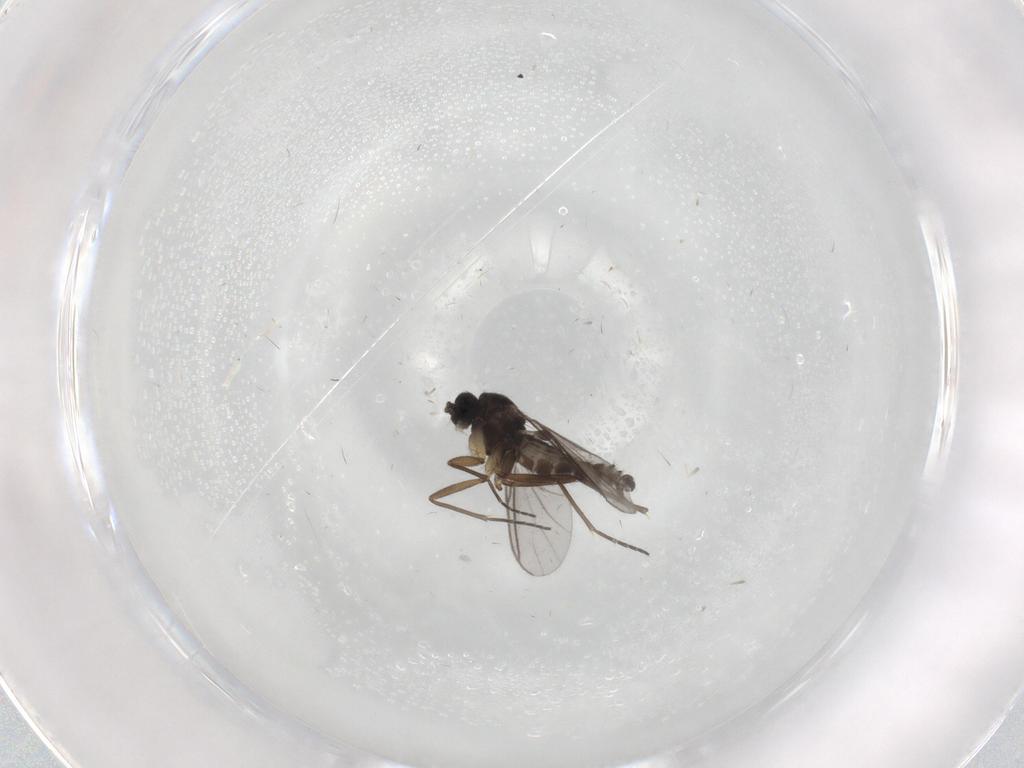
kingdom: Animalia
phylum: Arthropoda
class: Insecta
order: Diptera
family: Sciaridae
